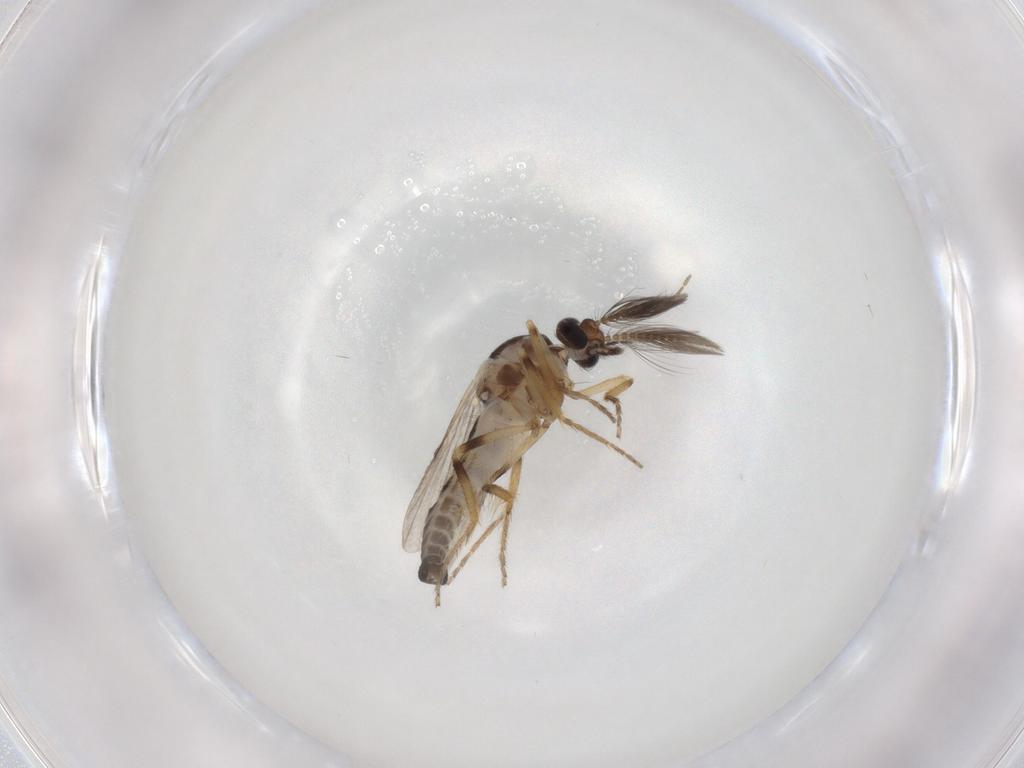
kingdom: Animalia
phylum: Arthropoda
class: Insecta
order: Diptera
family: Ceratopogonidae
